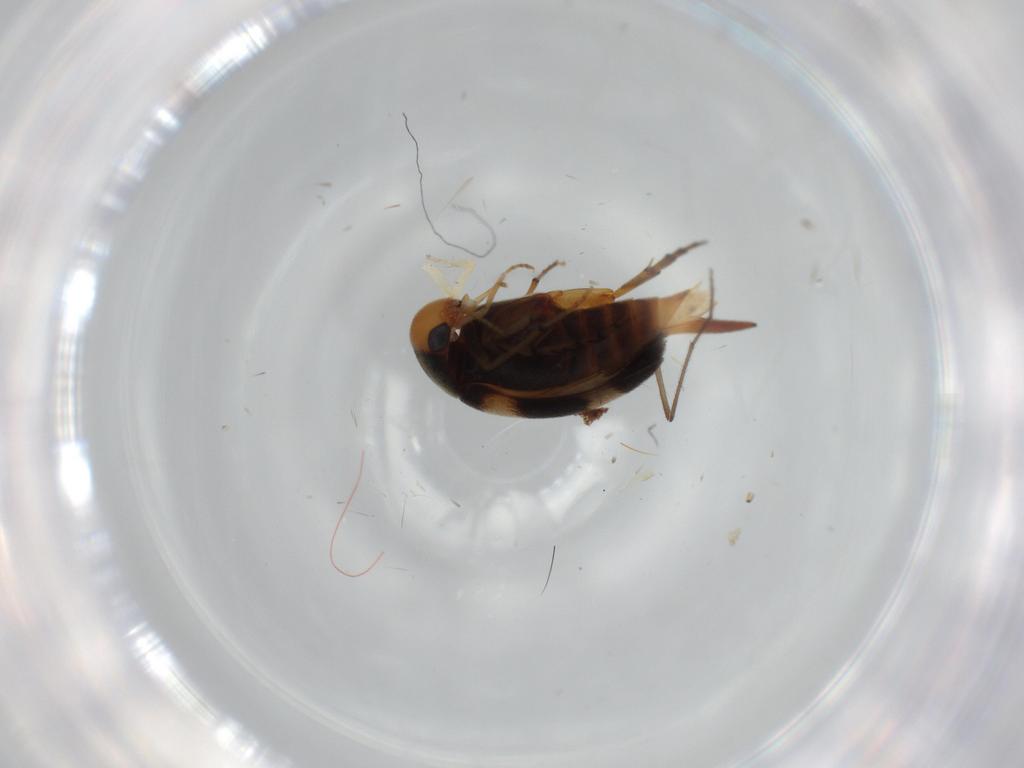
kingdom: Animalia
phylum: Arthropoda
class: Insecta
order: Coleoptera
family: Mordellidae
